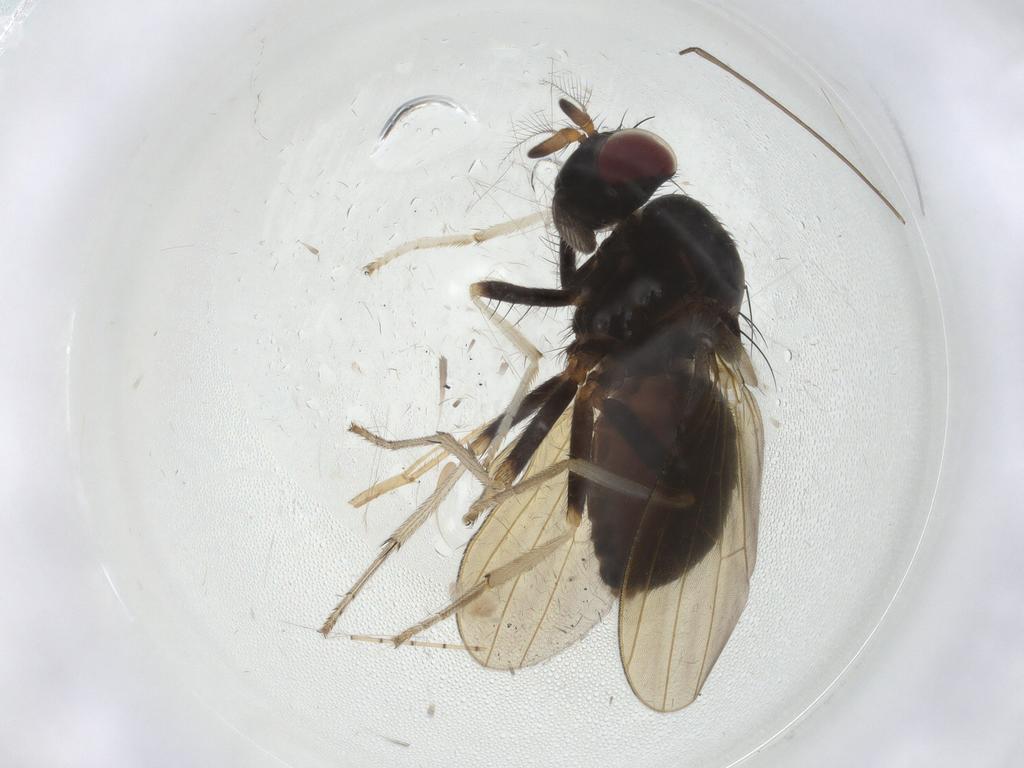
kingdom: Animalia
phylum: Arthropoda
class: Insecta
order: Diptera
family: Limoniidae
